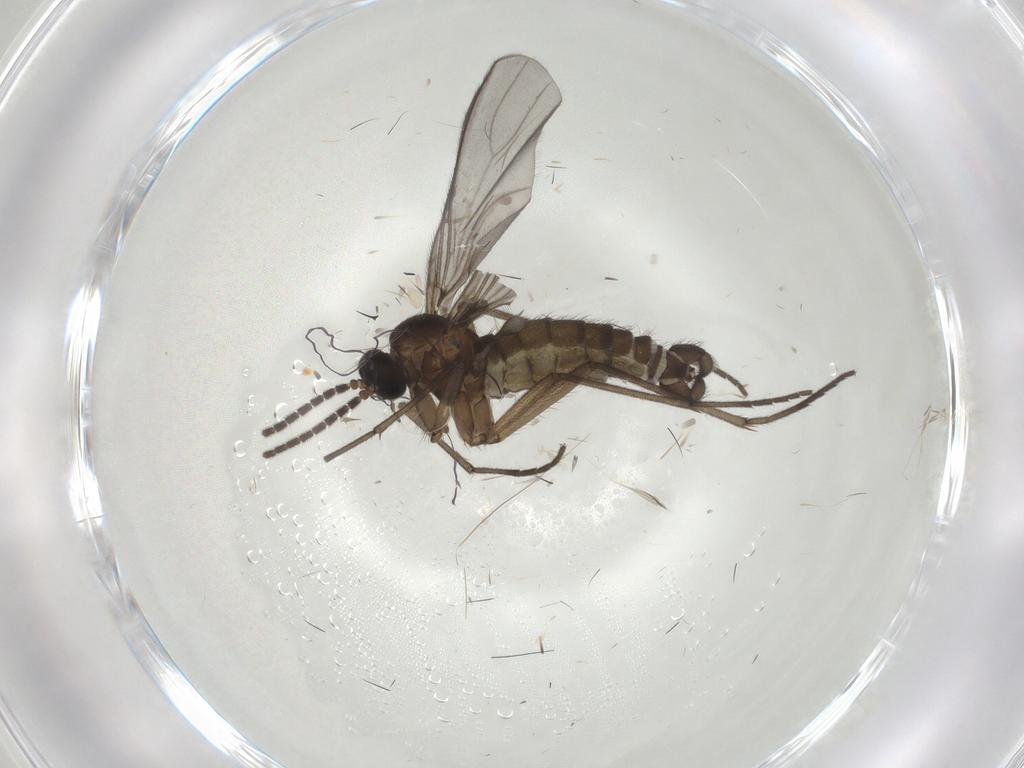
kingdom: Animalia
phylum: Arthropoda
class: Insecta
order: Diptera
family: Sciaridae
